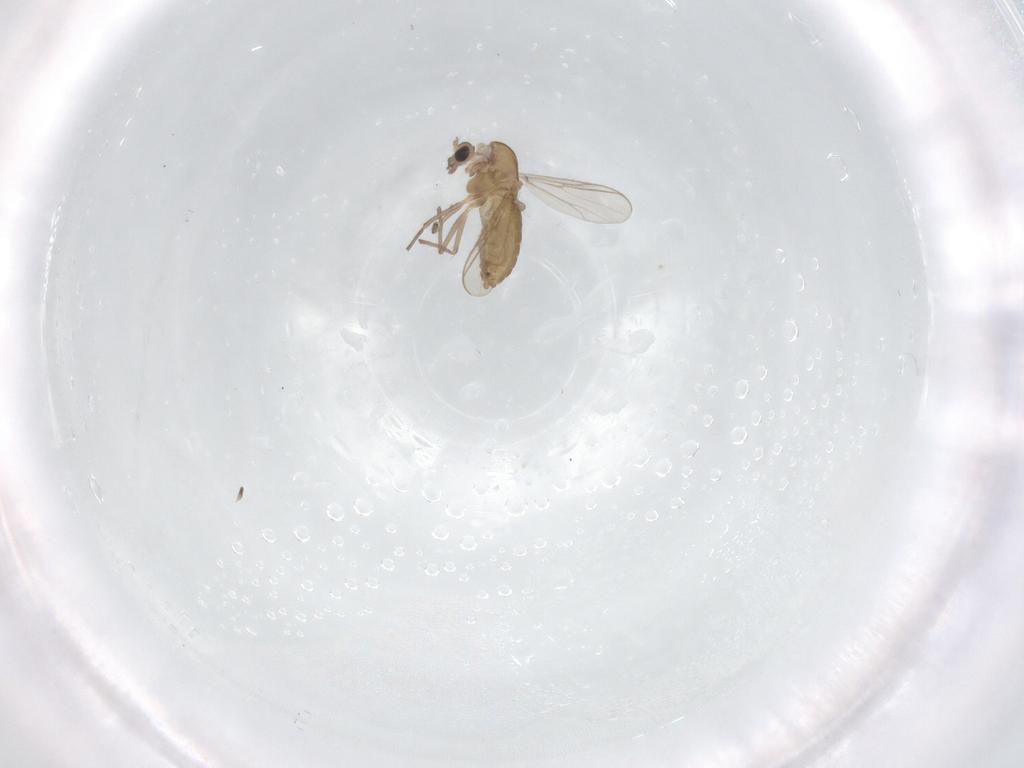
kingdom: Animalia
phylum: Arthropoda
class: Insecta
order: Diptera
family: Chironomidae
